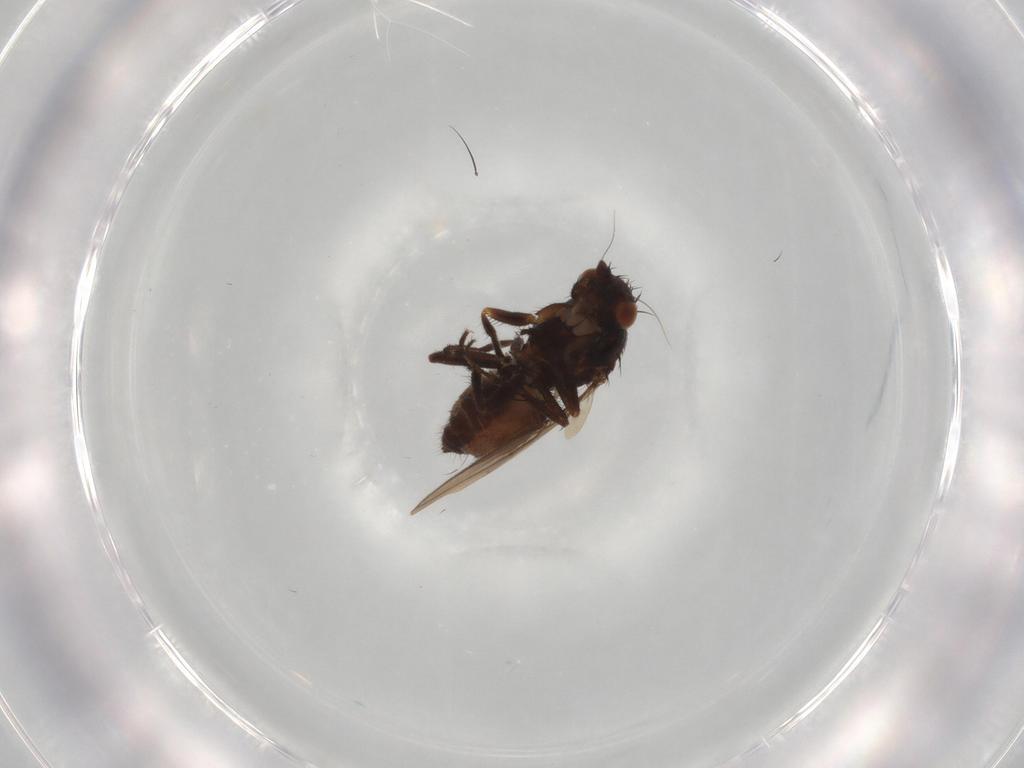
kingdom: Animalia
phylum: Arthropoda
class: Insecta
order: Diptera
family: Sphaeroceridae
